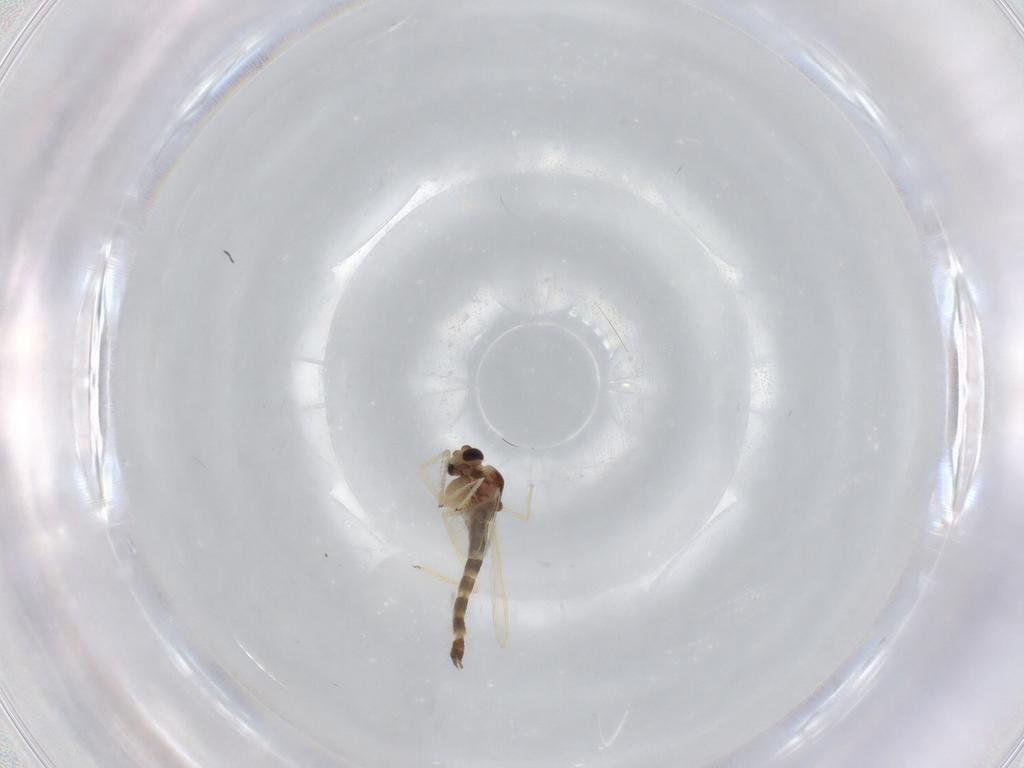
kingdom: Animalia
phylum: Arthropoda
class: Insecta
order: Diptera
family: Chironomidae
